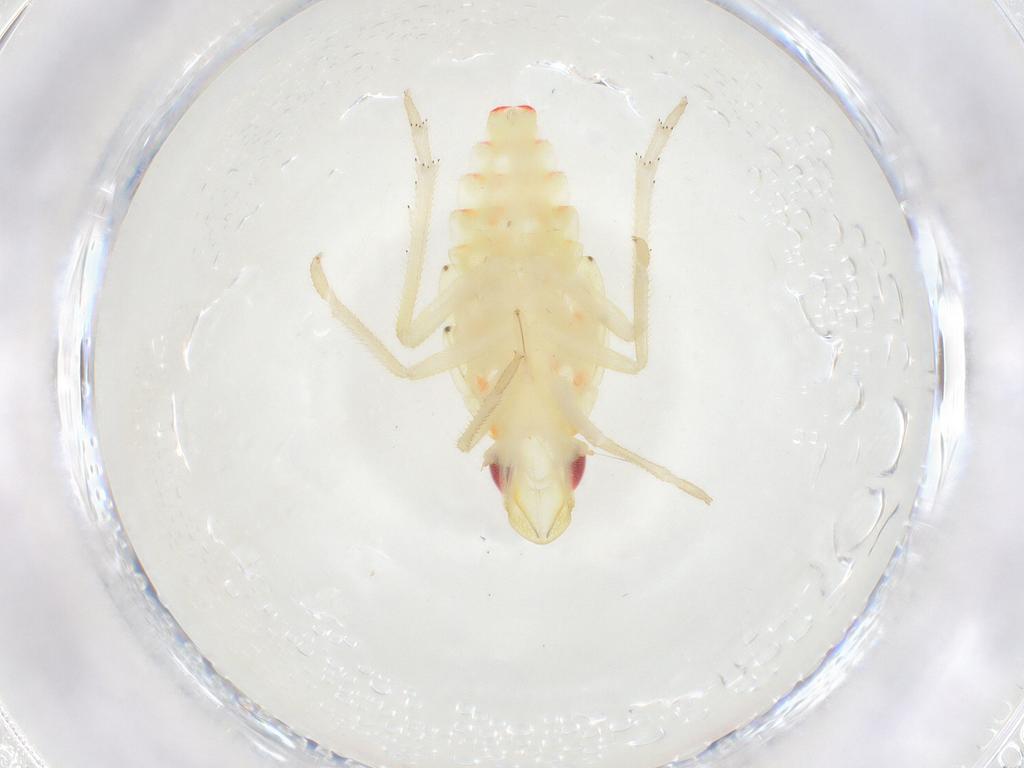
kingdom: Animalia
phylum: Arthropoda
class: Insecta
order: Hemiptera
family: Tropiduchidae
